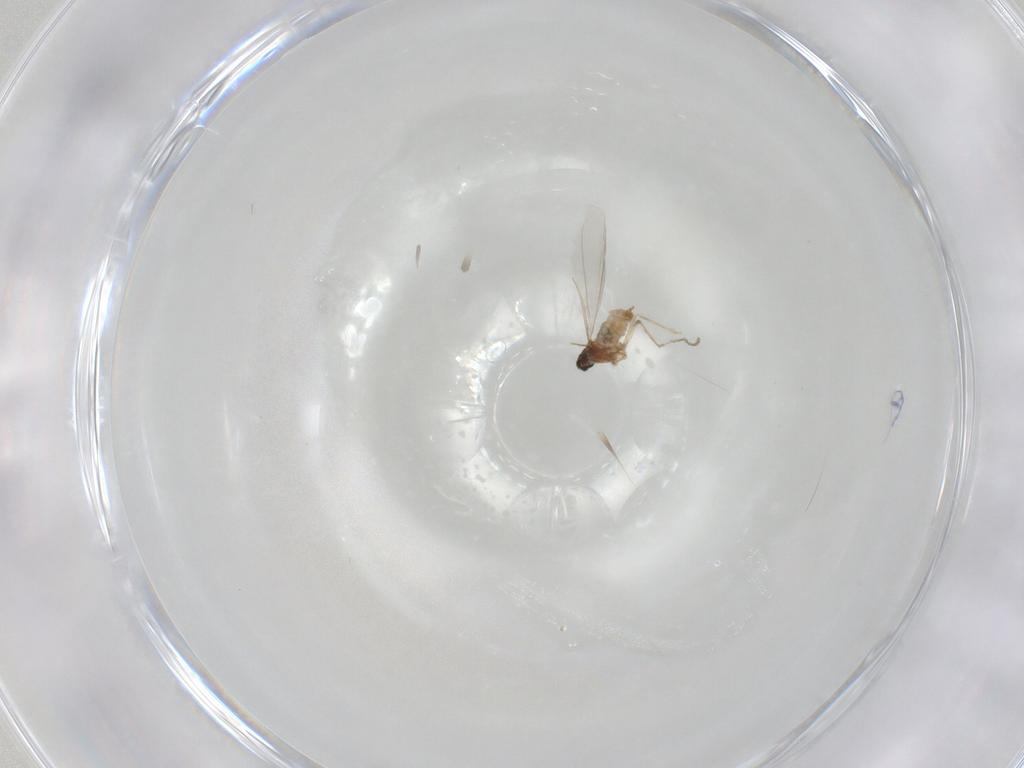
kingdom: Animalia
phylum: Arthropoda
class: Insecta
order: Diptera
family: Cecidomyiidae
